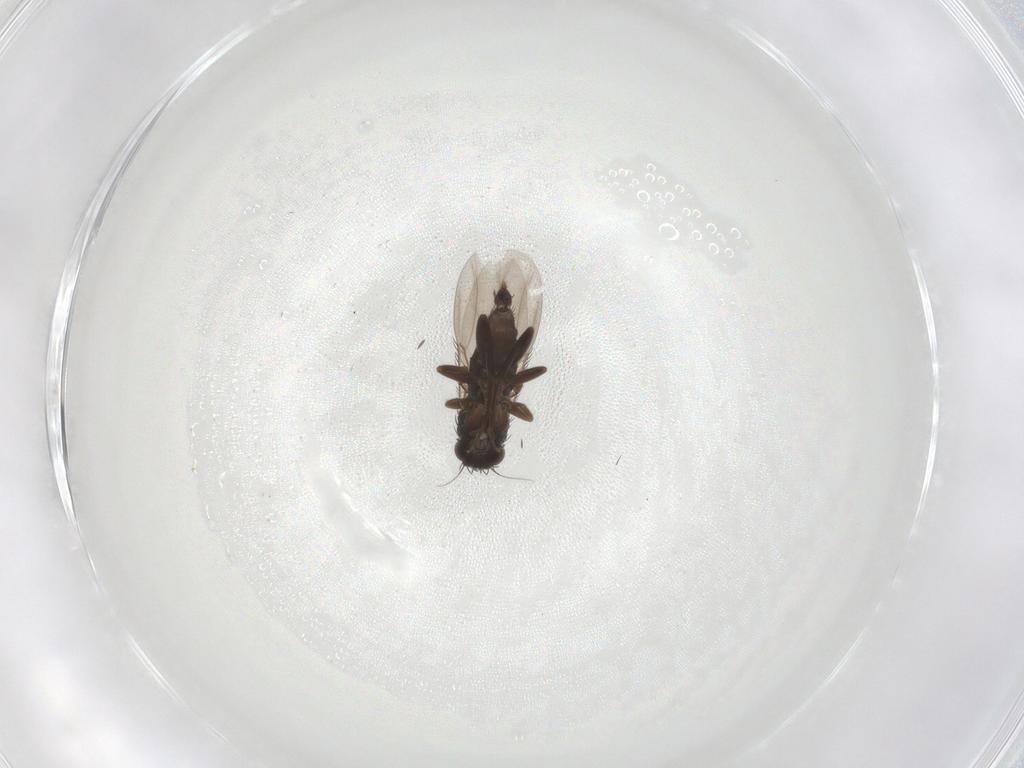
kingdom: Animalia
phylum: Arthropoda
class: Insecta
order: Diptera
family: Phoridae
